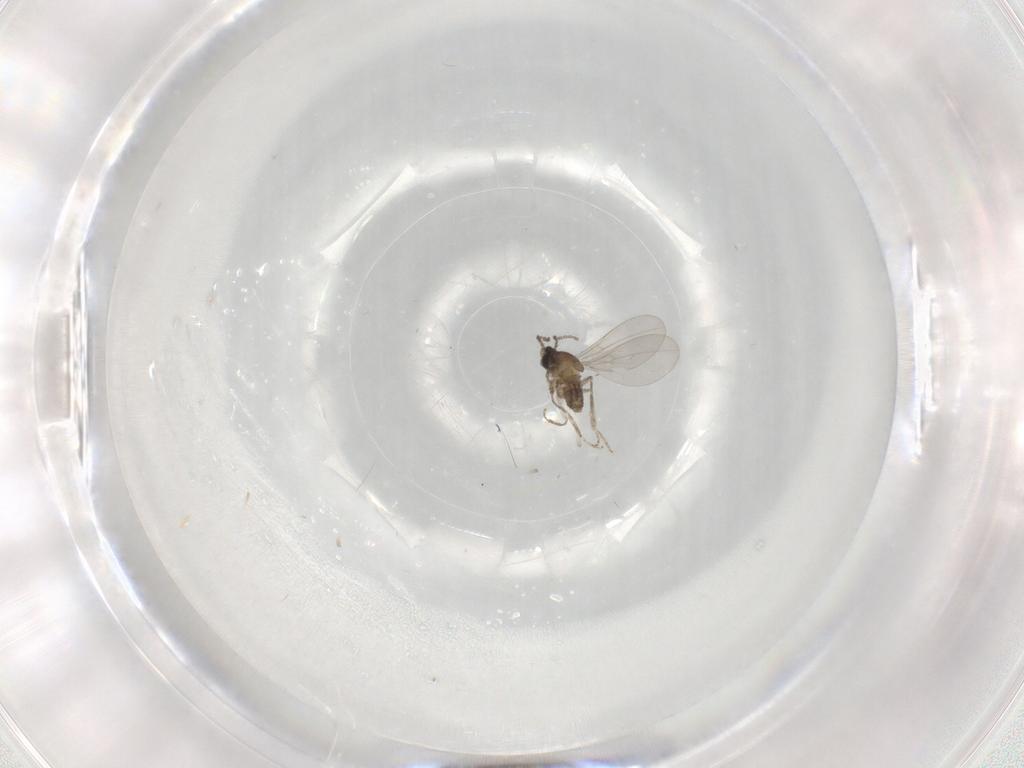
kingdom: Animalia
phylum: Arthropoda
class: Insecta
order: Diptera
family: Cecidomyiidae
